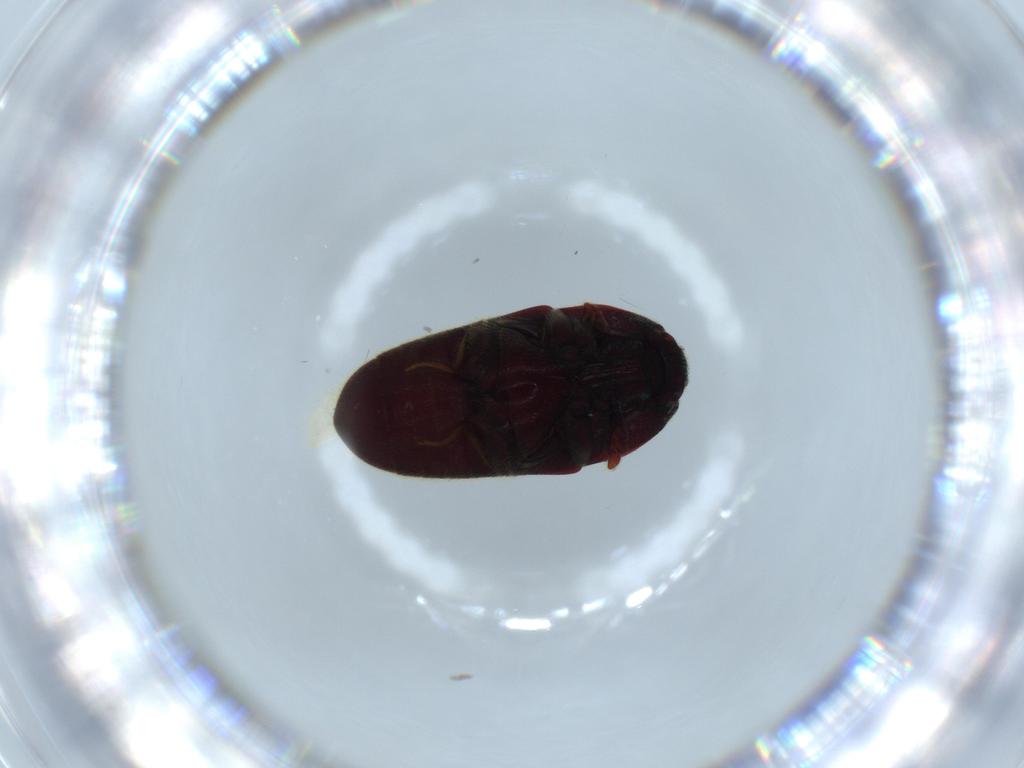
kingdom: Animalia
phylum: Arthropoda
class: Insecta
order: Coleoptera
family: Throscidae
